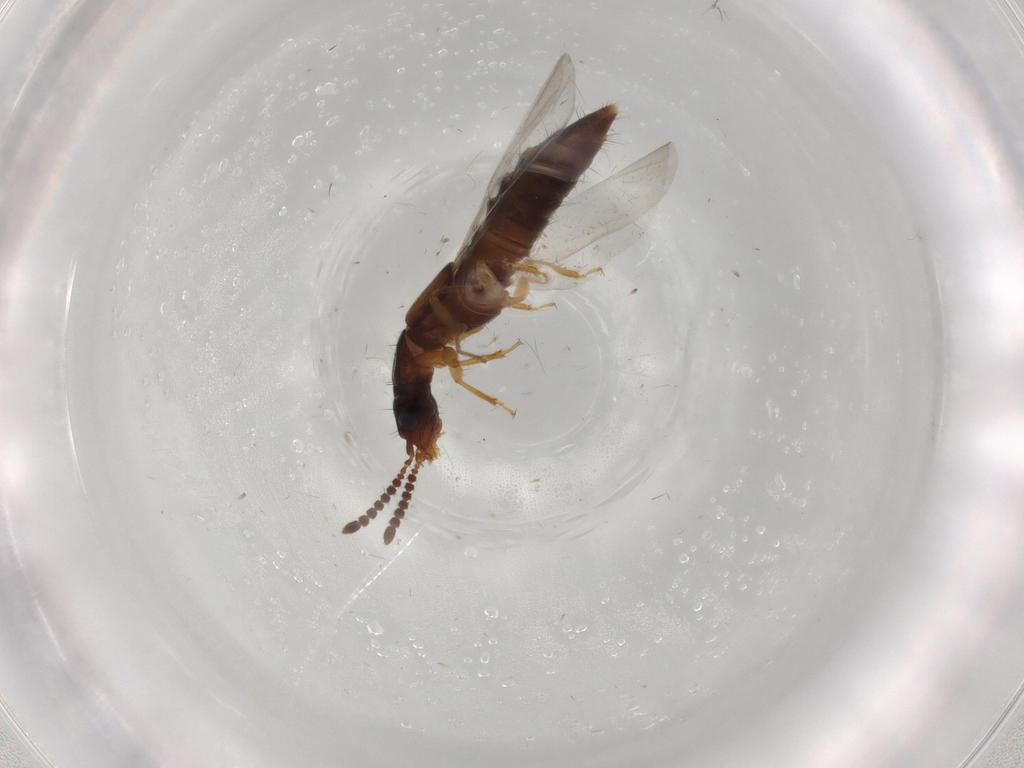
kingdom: Animalia
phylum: Arthropoda
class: Insecta
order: Coleoptera
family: Staphylinidae
